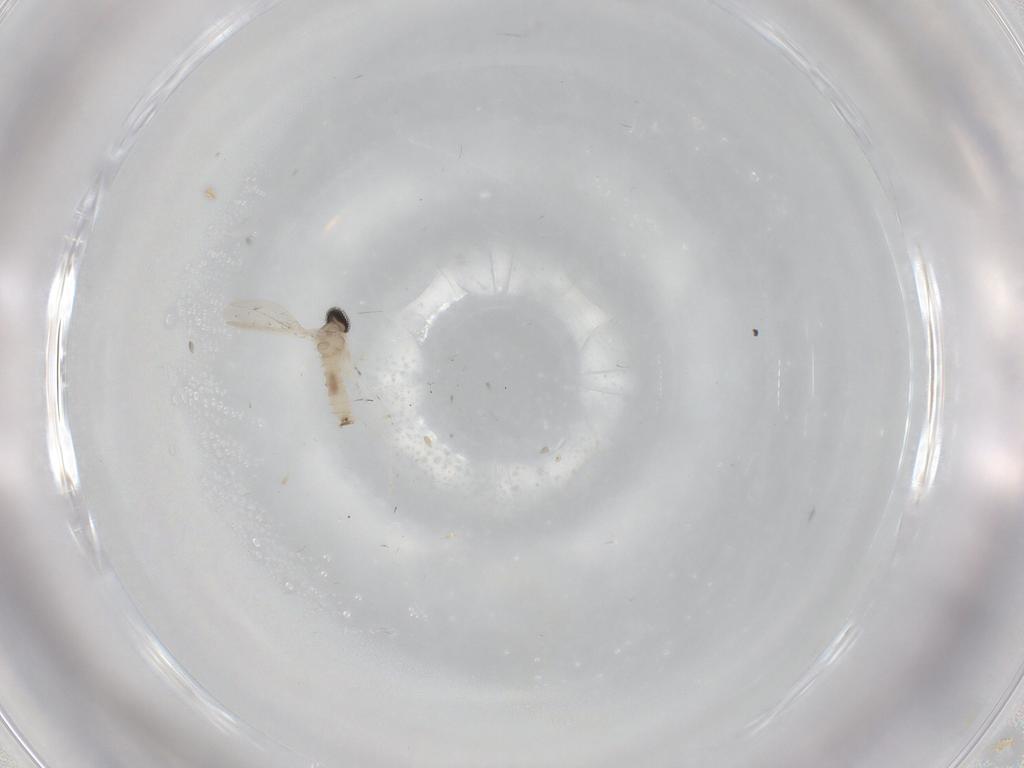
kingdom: Animalia
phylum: Arthropoda
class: Insecta
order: Diptera
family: Cecidomyiidae
